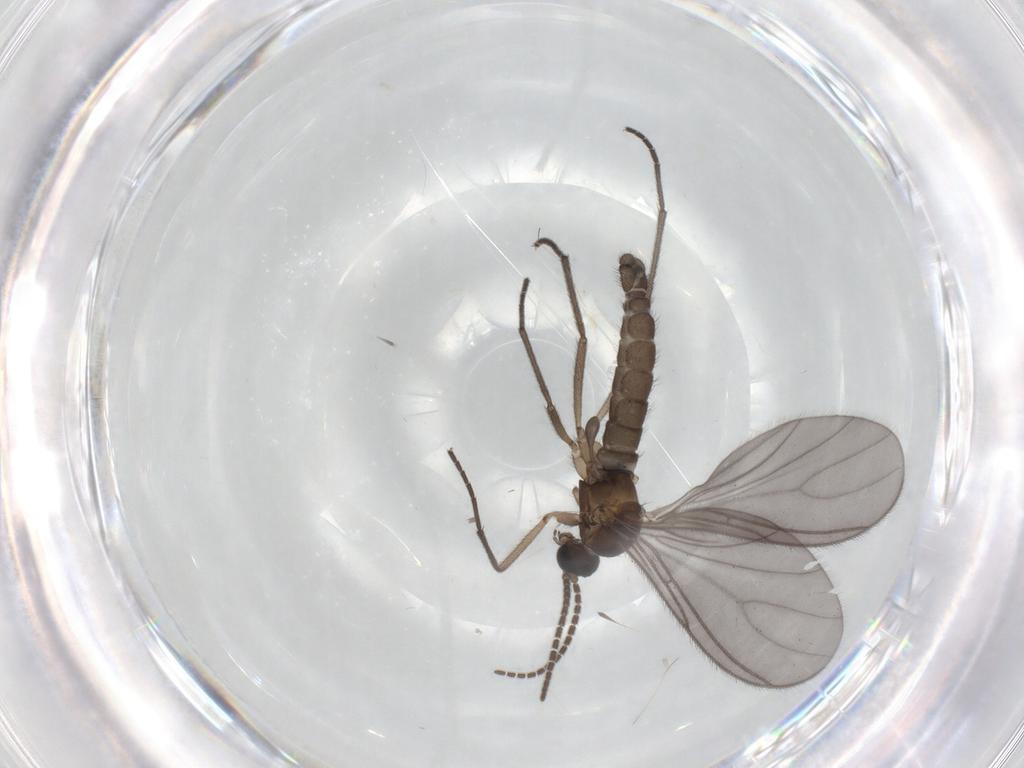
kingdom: Animalia
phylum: Arthropoda
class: Insecta
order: Diptera
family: Sciaridae
